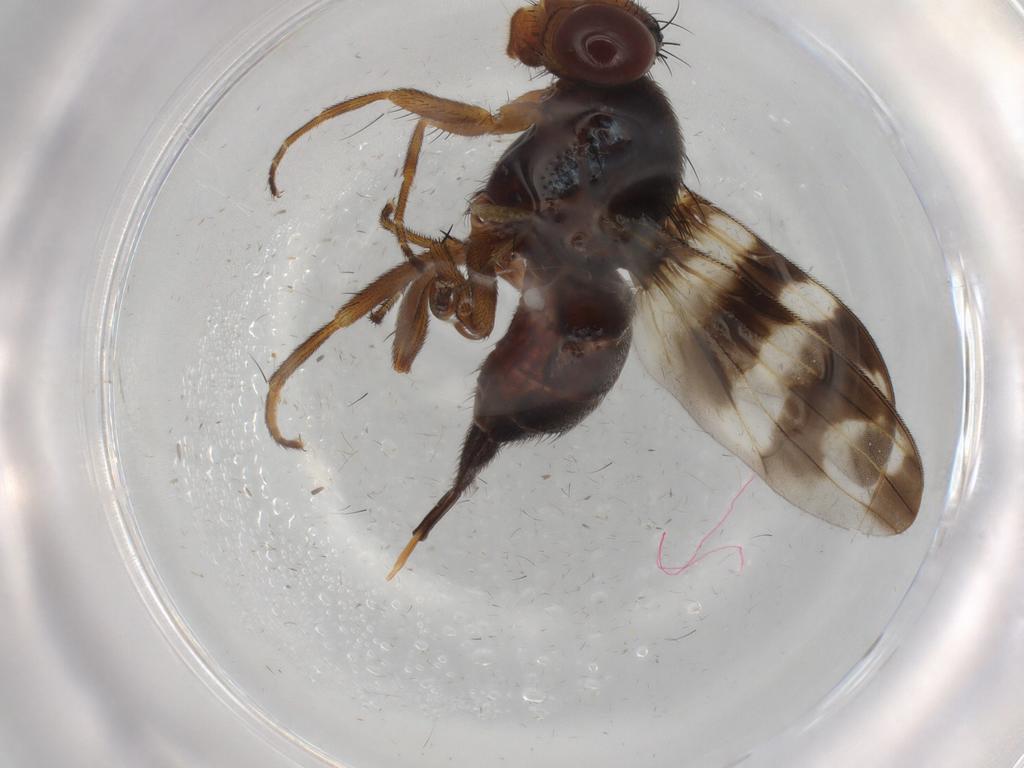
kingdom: Animalia
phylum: Arthropoda
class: Insecta
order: Diptera
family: Drosophilidae
